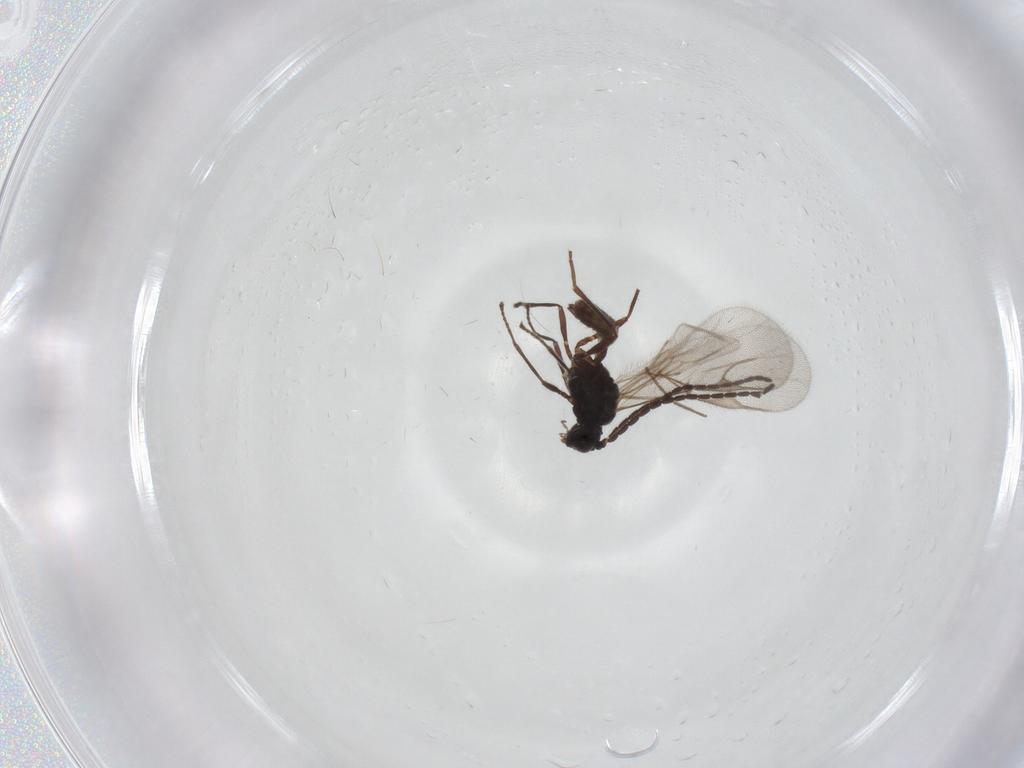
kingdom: Animalia
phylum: Arthropoda
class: Insecta
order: Hymenoptera
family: Braconidae
